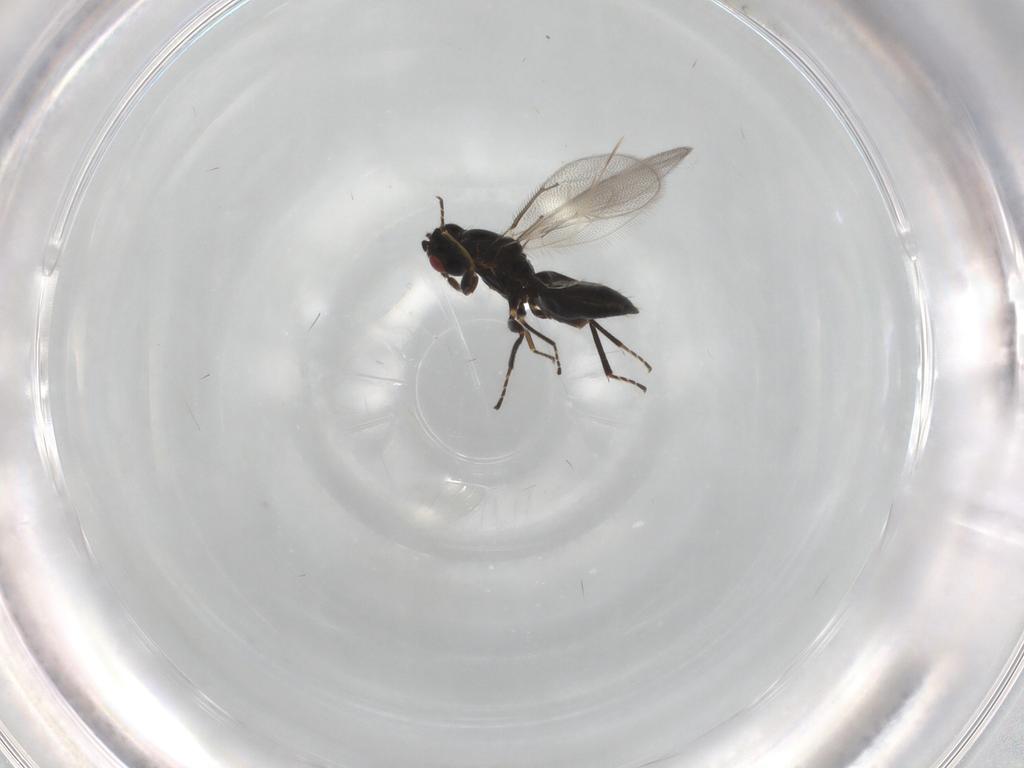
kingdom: Animalia
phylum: Arthropoda
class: Insecta
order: Hymenoptera
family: Eulophidae
